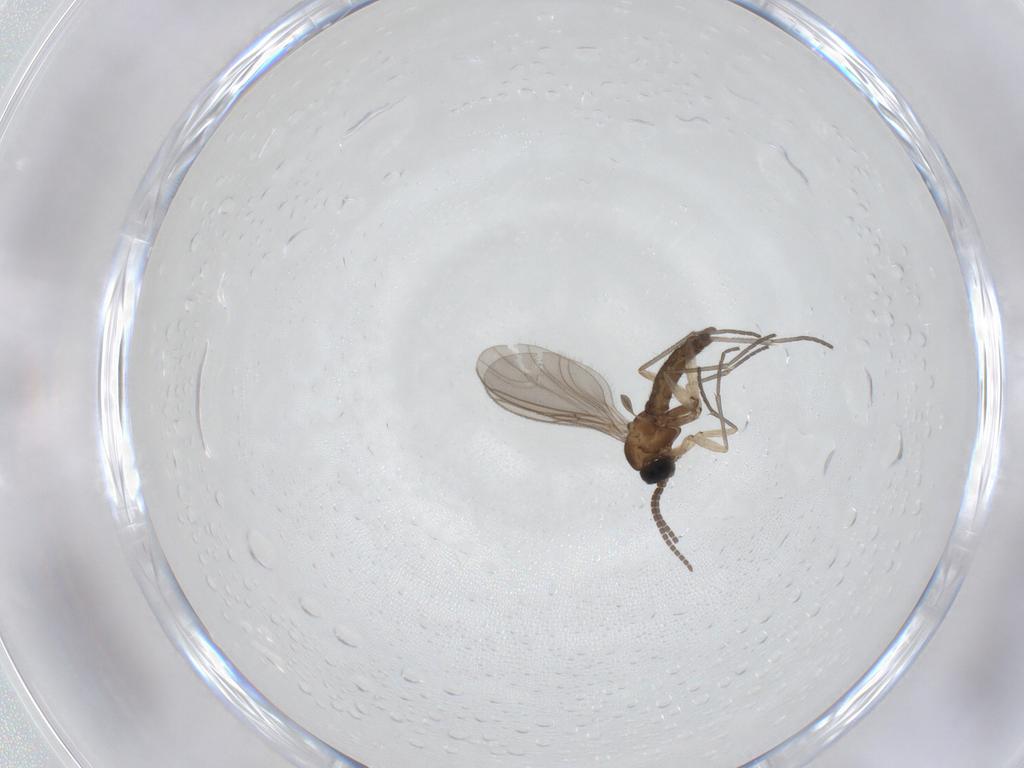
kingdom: Animalia
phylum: Arthropoda
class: Insecta
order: Diptera
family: Sciaridae
